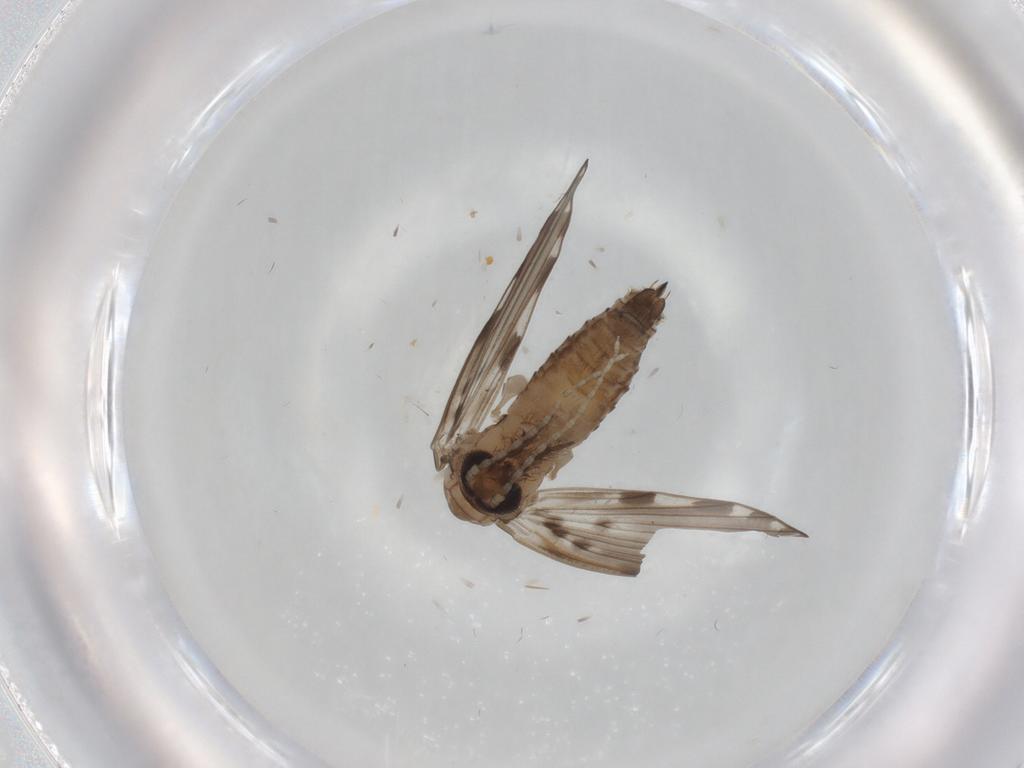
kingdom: Animalia
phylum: Arthropoda
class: Insecta
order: Diptera
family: Psychodidae
